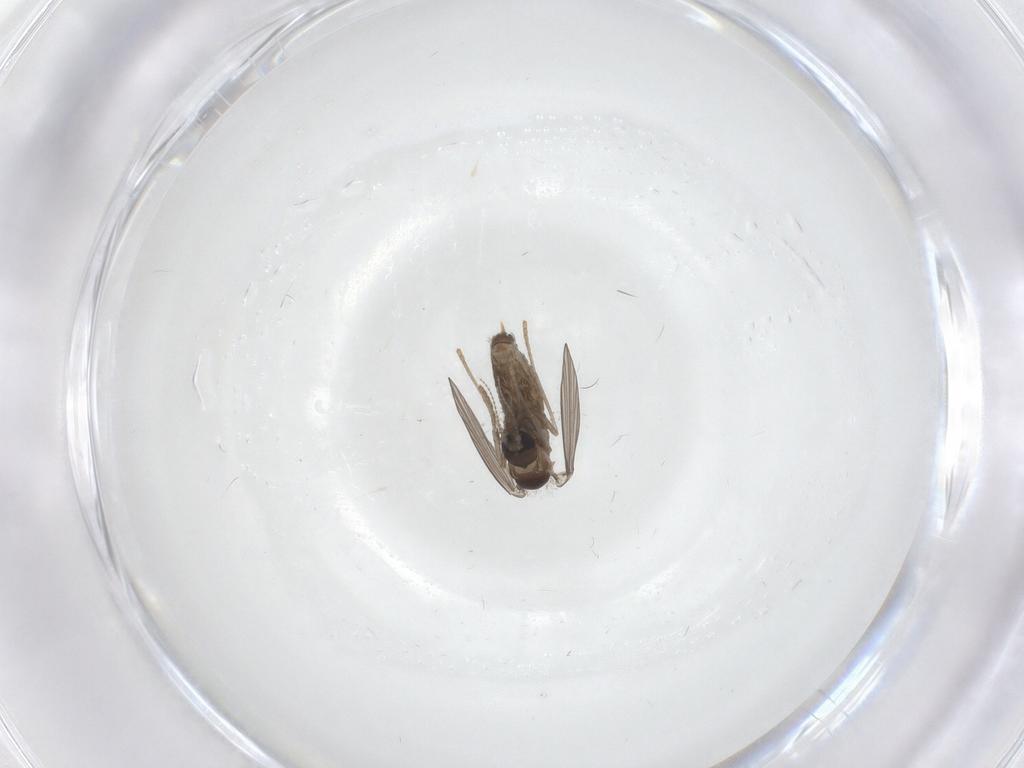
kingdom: Animalia
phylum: Arthropoda
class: Insecta
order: Diptera
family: Psychodidae
